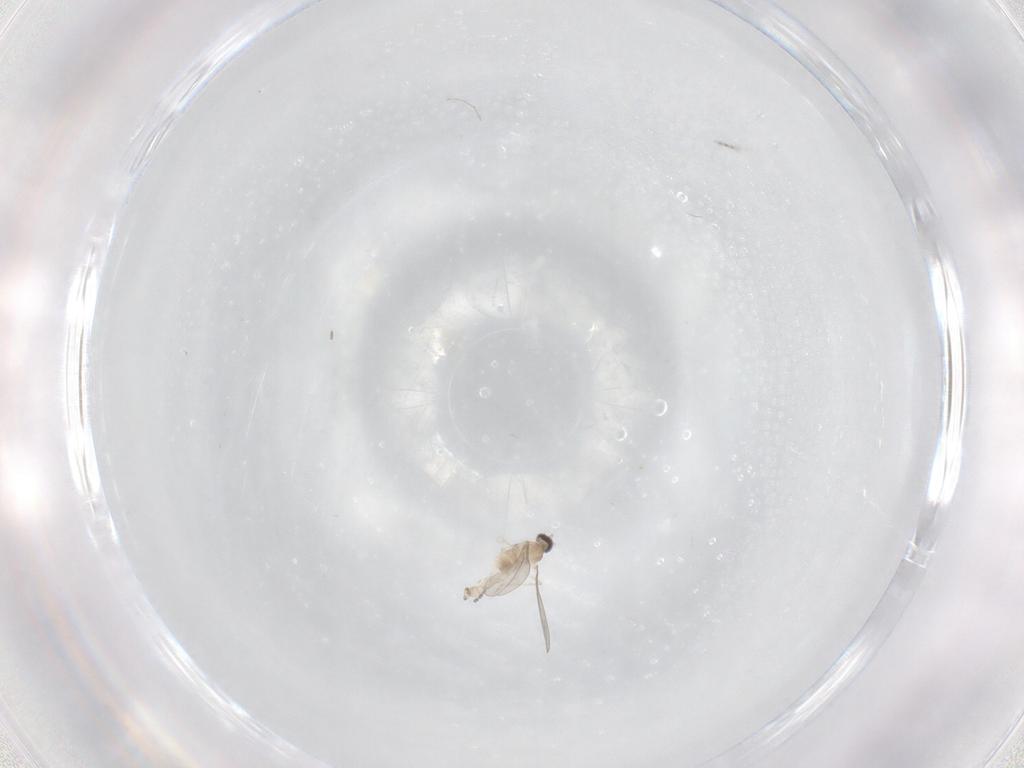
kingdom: Animalia
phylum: Arthropoda
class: Insecta
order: Diptera
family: Cecidomyiidae
